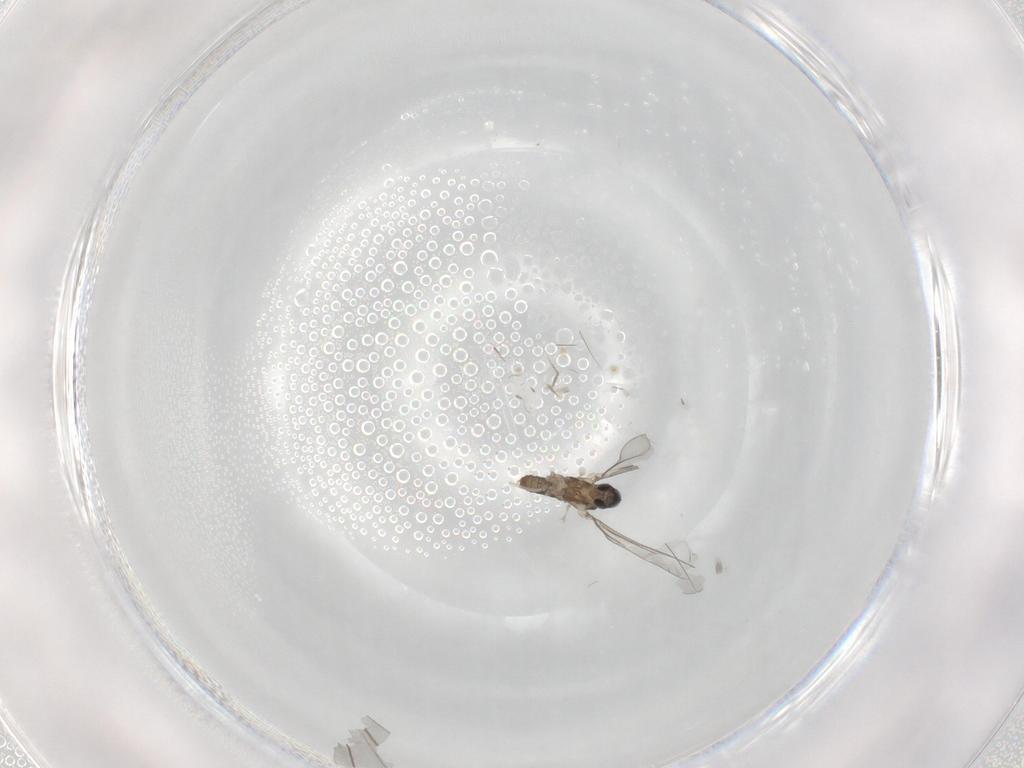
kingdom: Animalia
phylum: Arthropoda
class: Insecta
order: Diptera
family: Cecidomyiidae
